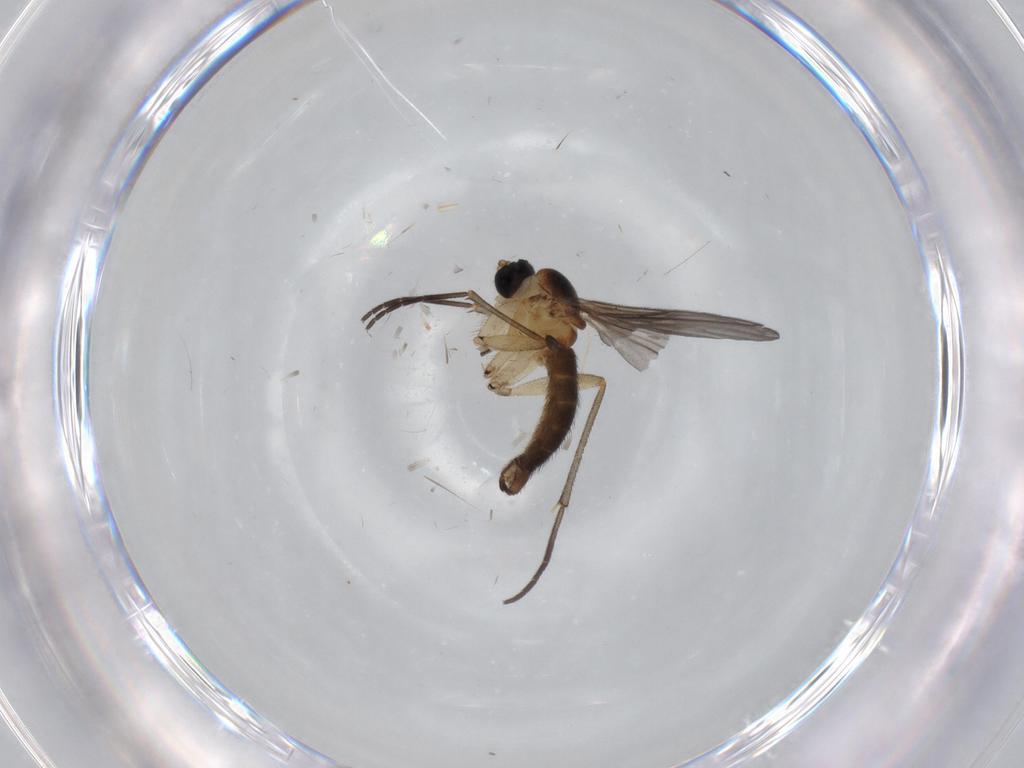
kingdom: Animalia
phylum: Arthropoda
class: Insecta
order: Diptera
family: Sciaridae
